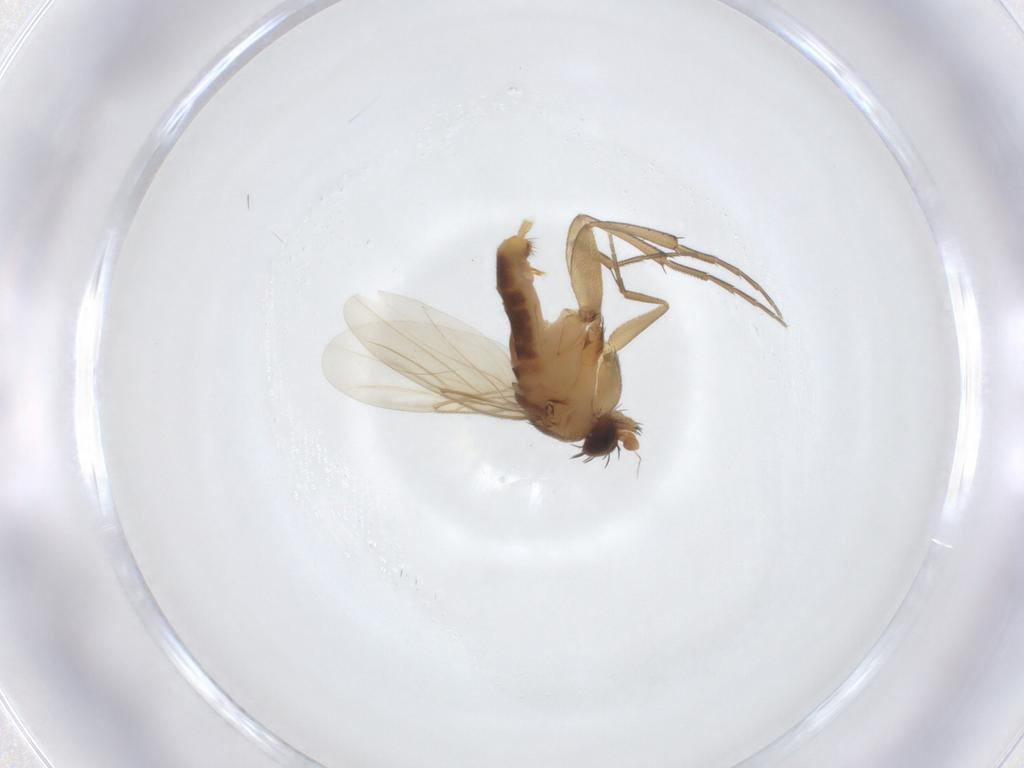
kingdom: Animalia
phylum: Arthropoda
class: Insecta
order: Diptera
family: Phoridae
